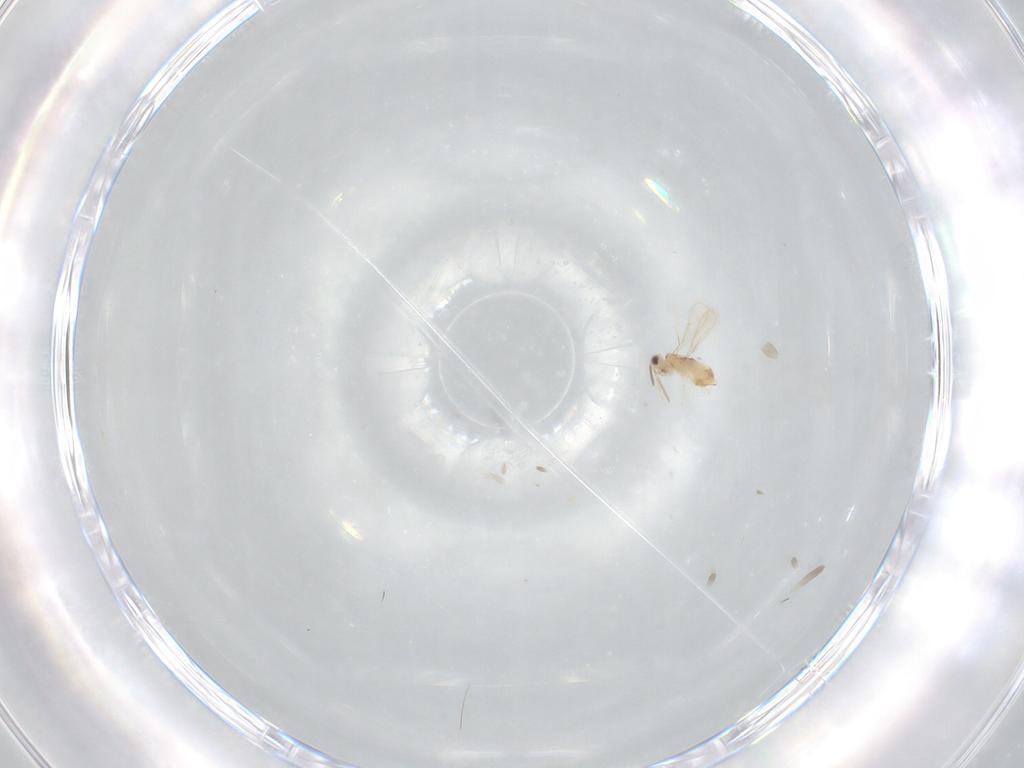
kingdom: Animalia
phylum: Arthropoda
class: Insecta
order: Hymenoptera
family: Aphelinidae
